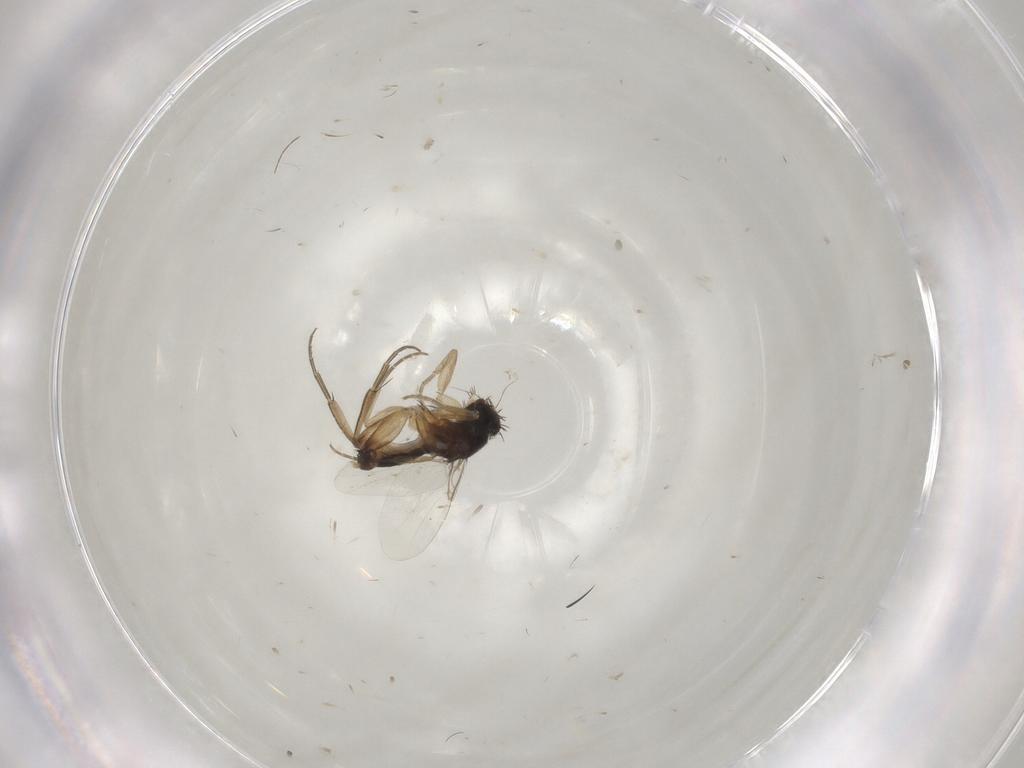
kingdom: Animalia
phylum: Arthropoda
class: Insecta
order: Diptera
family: Phoridae
